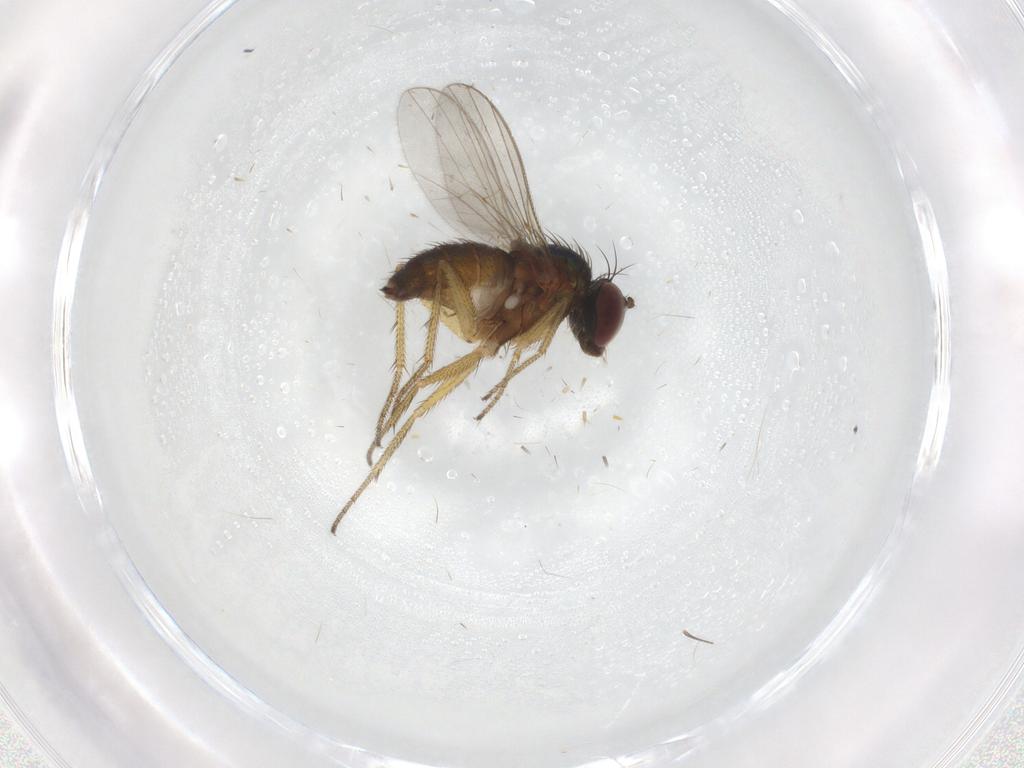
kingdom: Animalia
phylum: Arthropoda
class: Insecta
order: Diptera
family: Dolichopodidae
